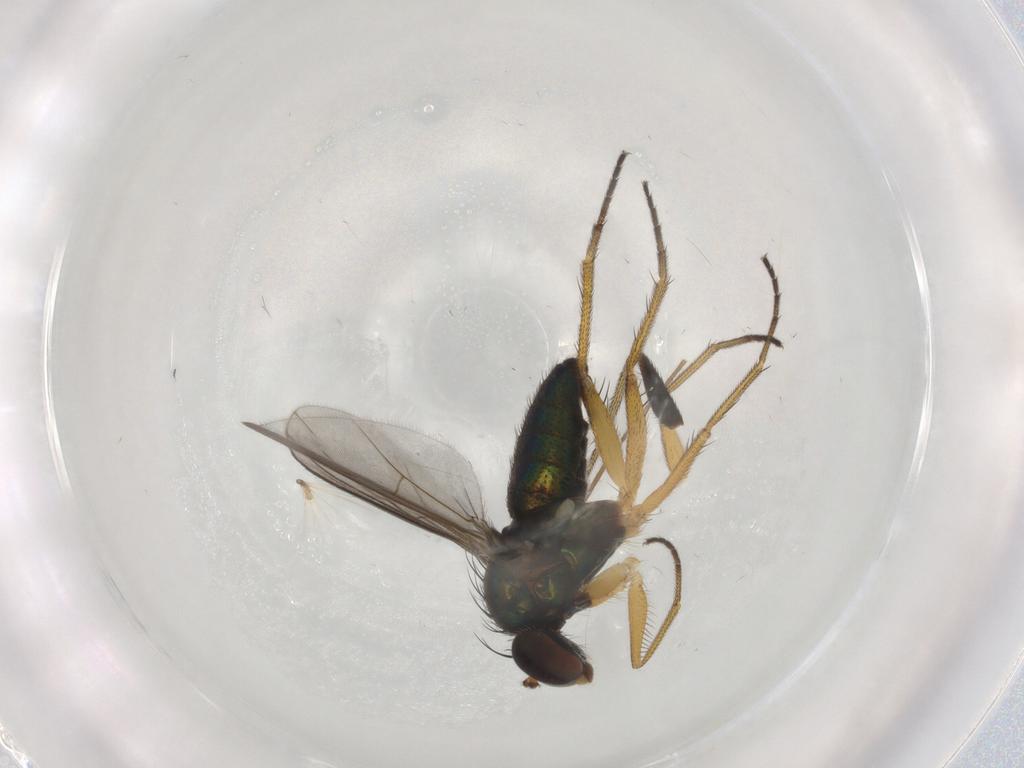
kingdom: Animalia
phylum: Arthropoda
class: Insecta
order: Diptera
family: Dolichopodidae
